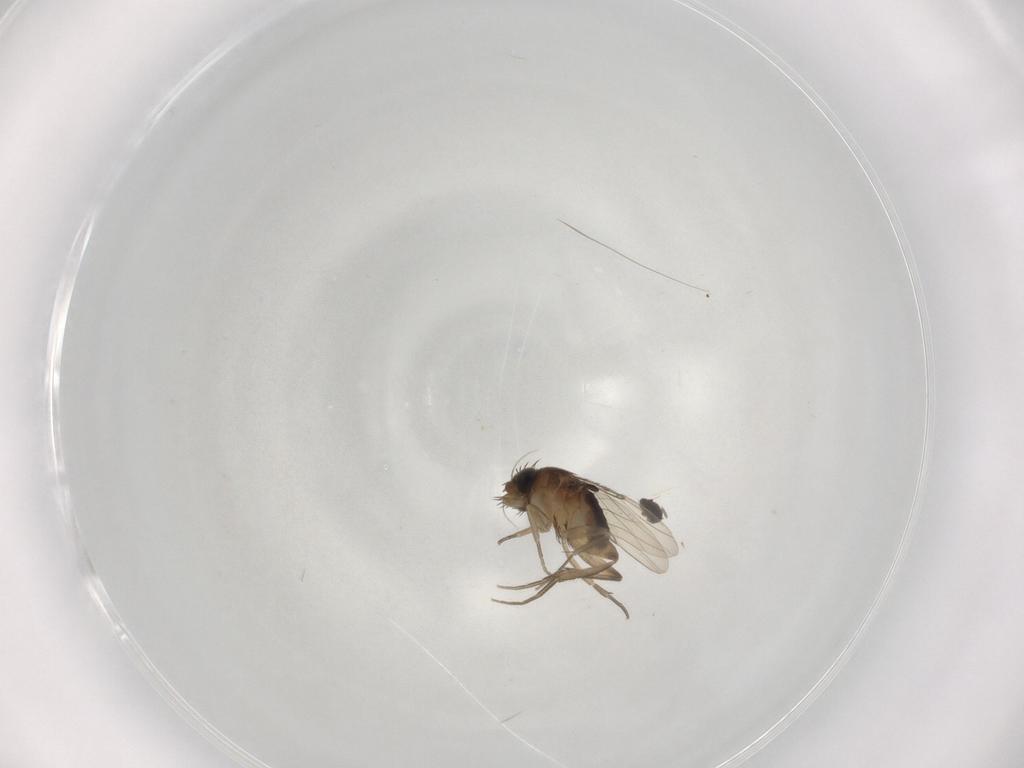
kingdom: Animalia
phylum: Arthropoda
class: Insecta
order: Diptera
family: Phoridae
